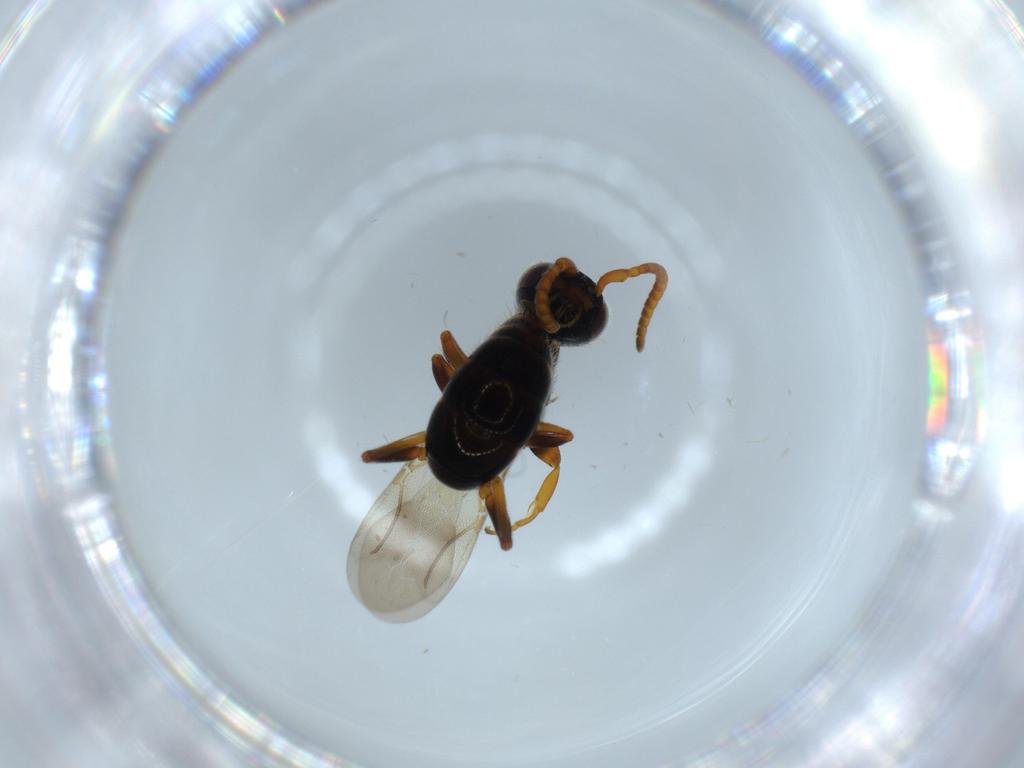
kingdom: Animalia
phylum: Arthropoda
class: Insecta
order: Hymenoptera
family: Bethylidae
